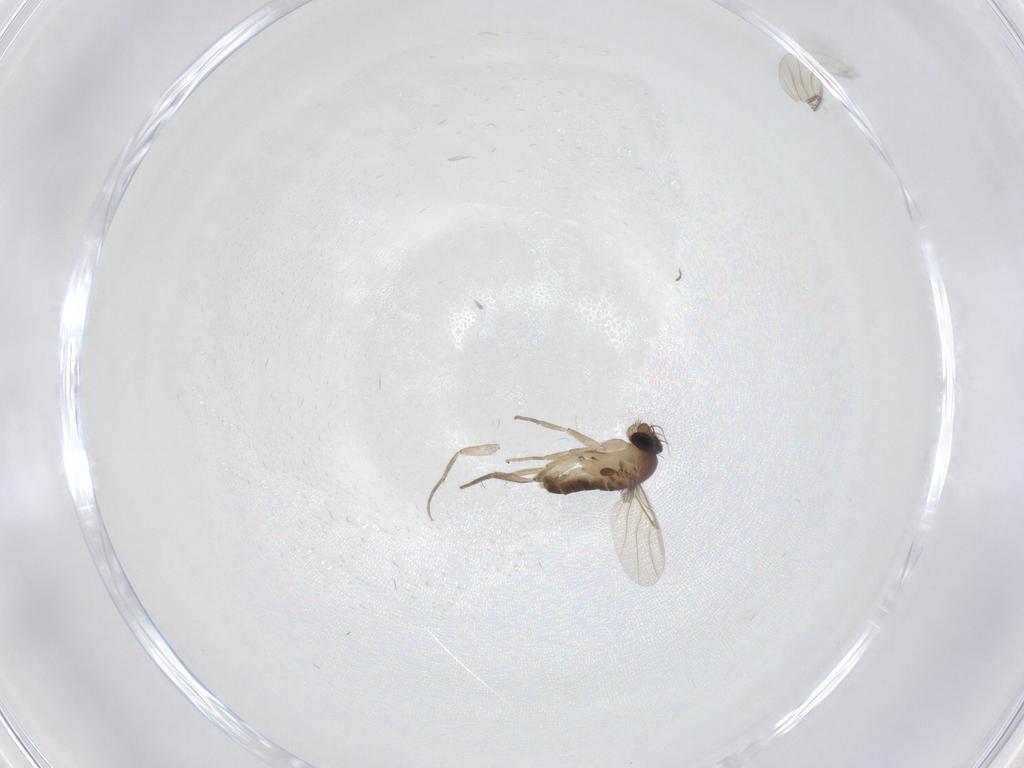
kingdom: Animalia
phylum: Arthropoda
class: Insecta
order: Diptera
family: Phoridae
